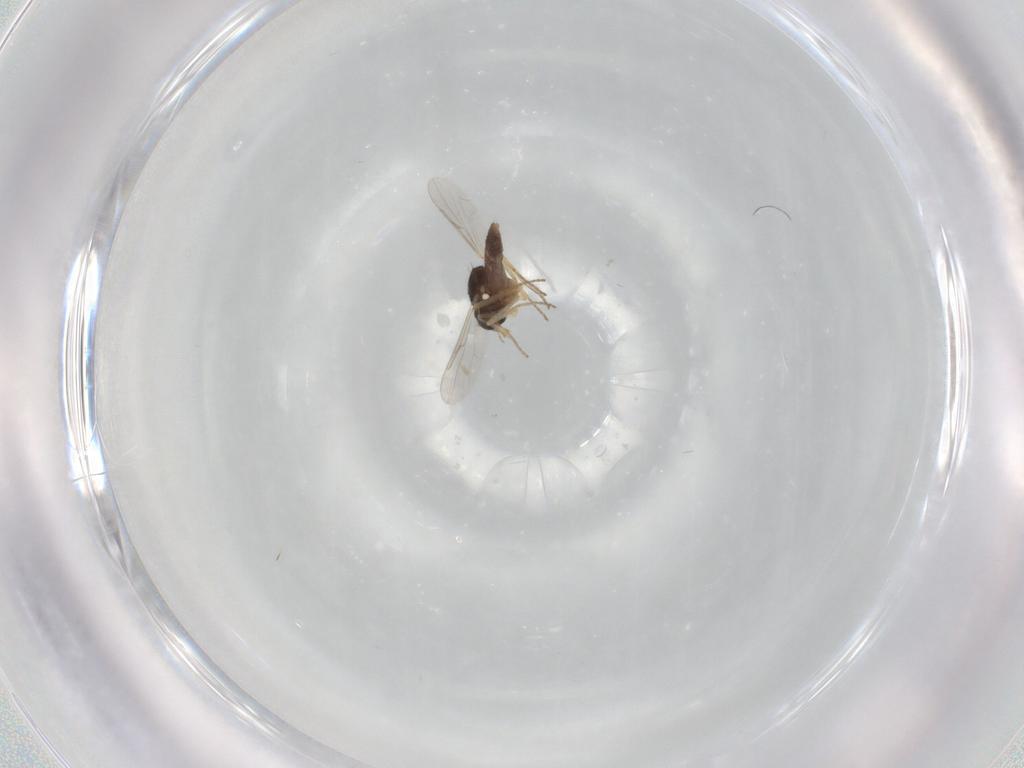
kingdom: Animalia
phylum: Arthropoda
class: Insecta
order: Diptera
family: Ceratopogonidae
